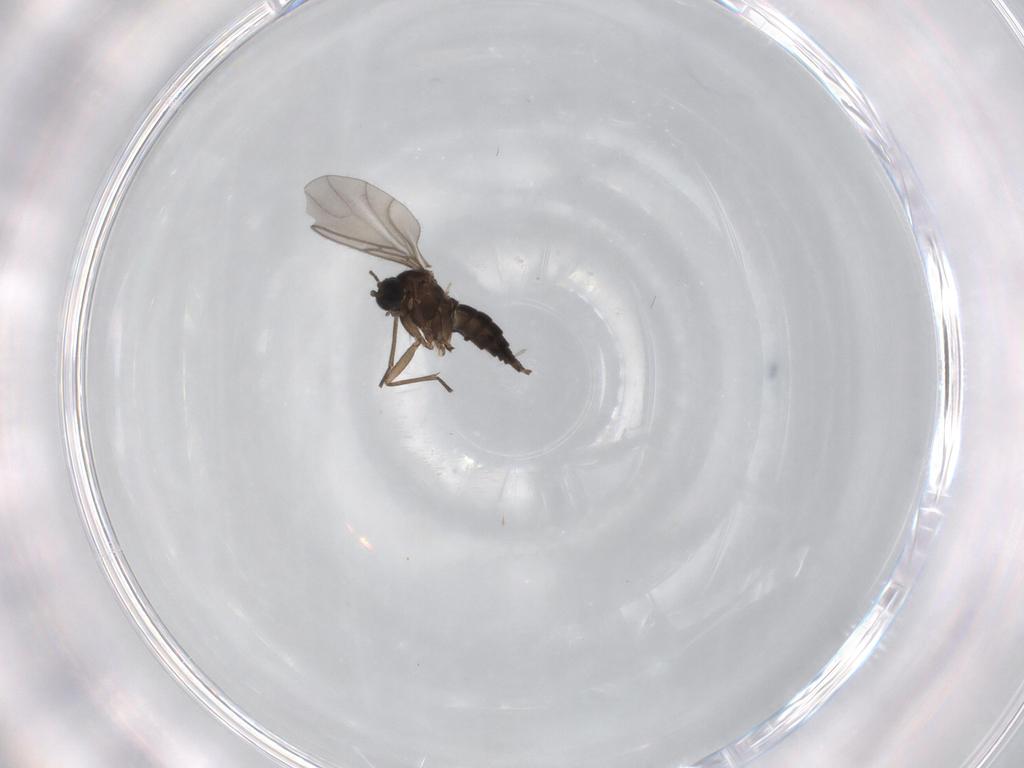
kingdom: Animalia
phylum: Arthropoda
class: Insecta
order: Diptera
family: Sciaridae
